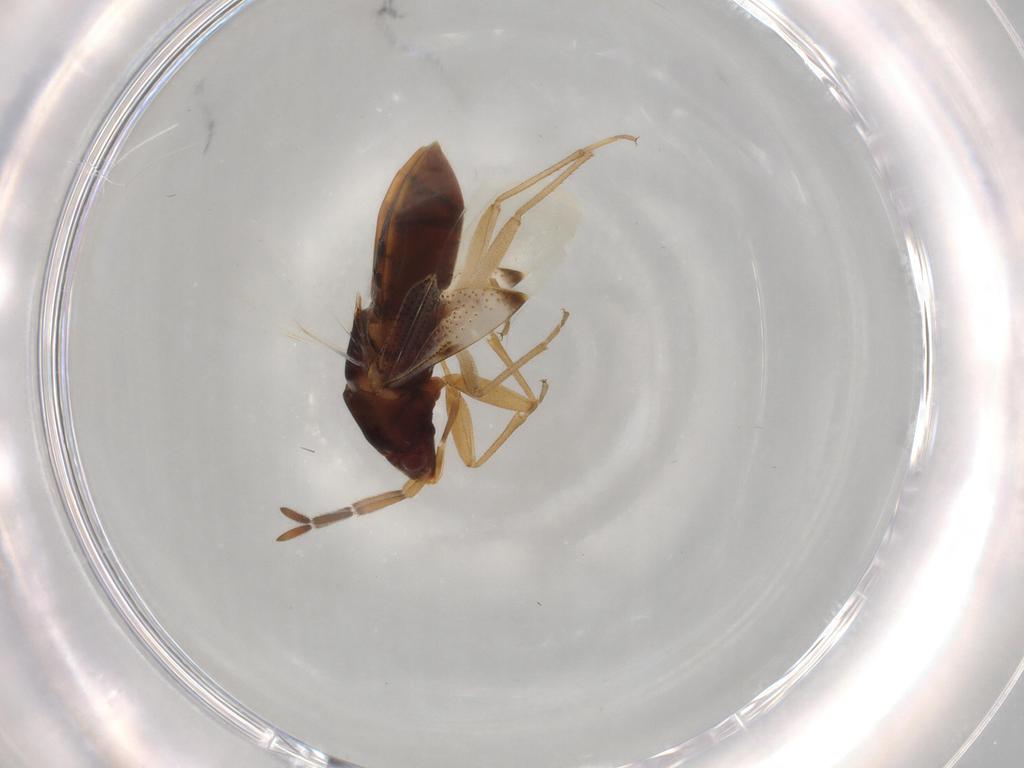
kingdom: Animalia
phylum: Arthropoda
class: Insecta
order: Hemiptera
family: Rhyparochromidae
